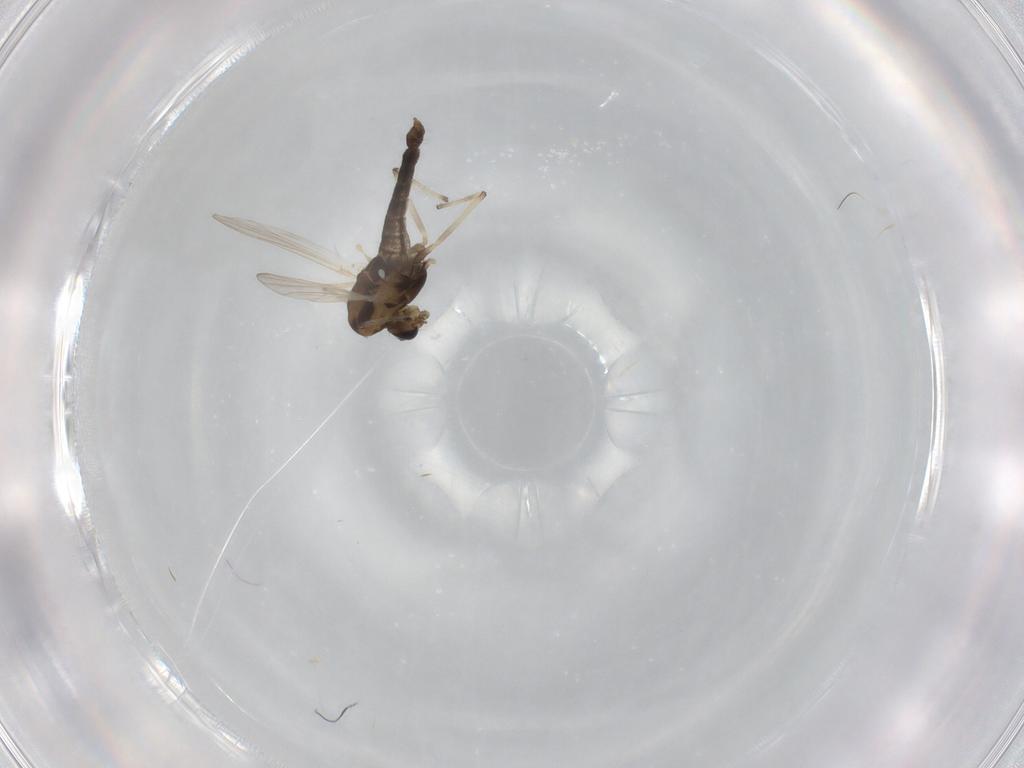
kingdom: Animalia
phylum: Arthropoda
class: Insecta
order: Diptera
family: Chironomidae
